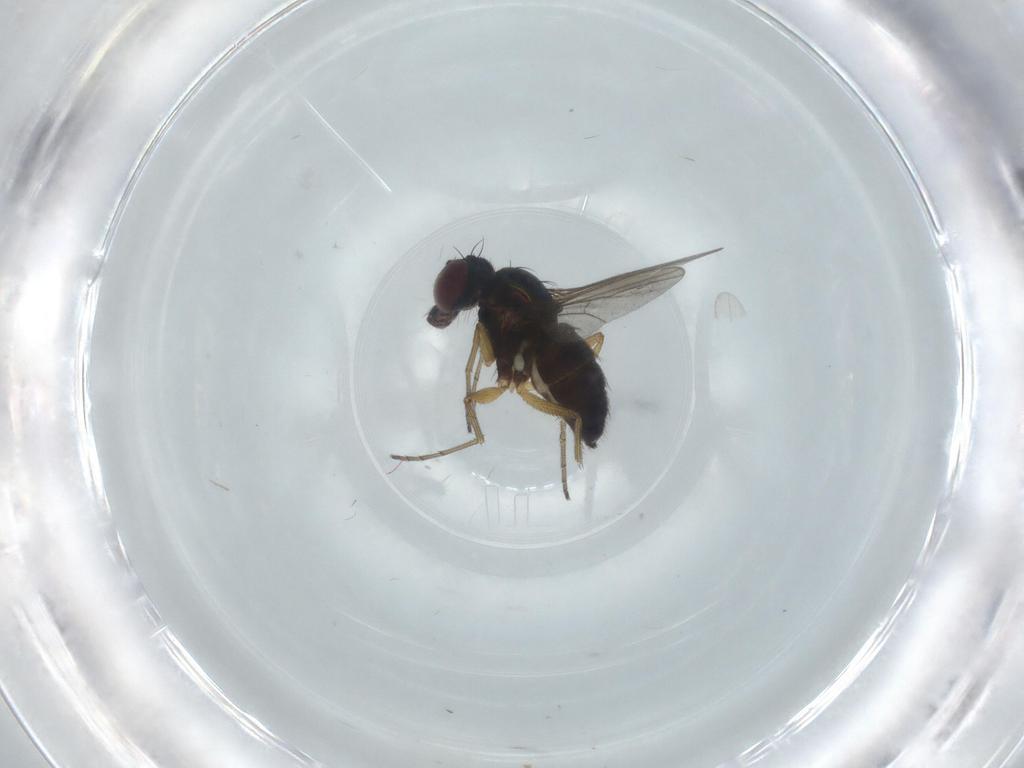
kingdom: Animalia
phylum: Arthropoda
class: Insecta
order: Diptera
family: Dolichopodidae
